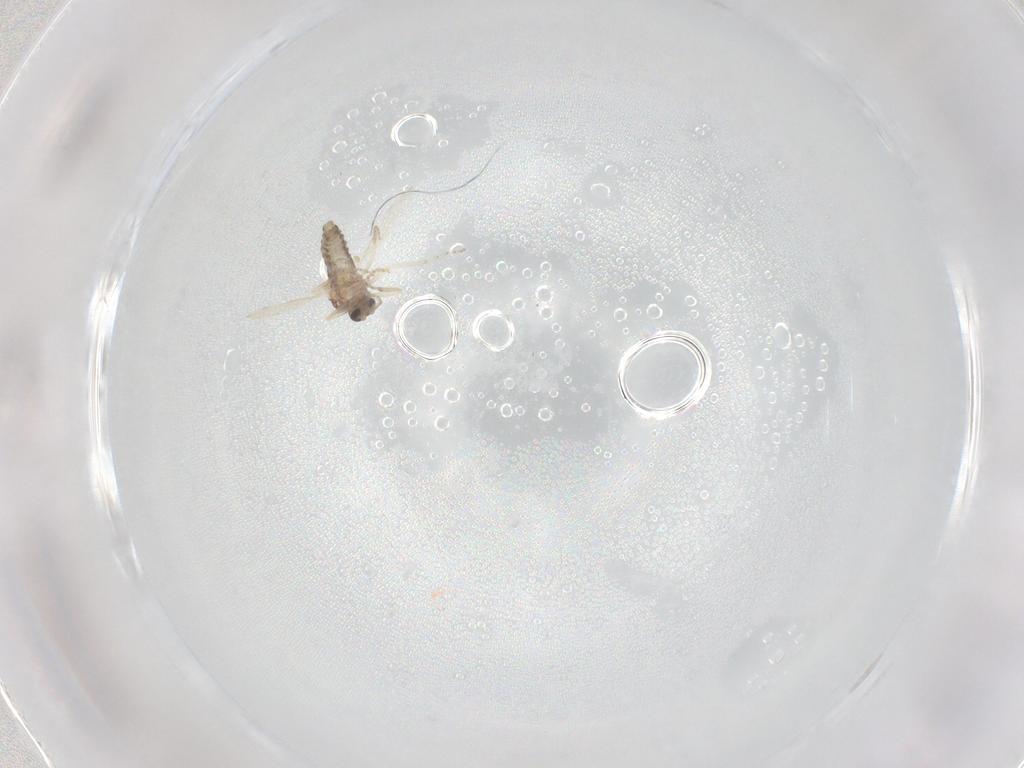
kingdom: Animalia
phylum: Arthropoda
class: Insecta
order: Diptera
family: Ceratopogonidae
